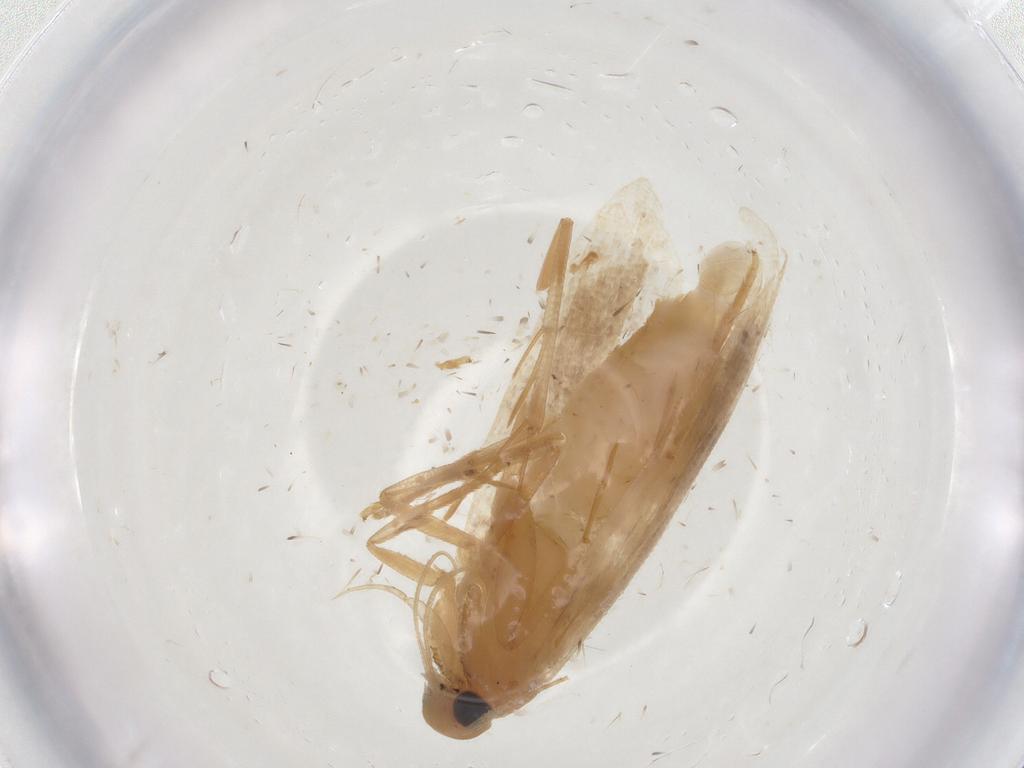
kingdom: Animalia
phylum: Arthropoda
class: Insecta
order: Lepidoptera
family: Gelechiidae
